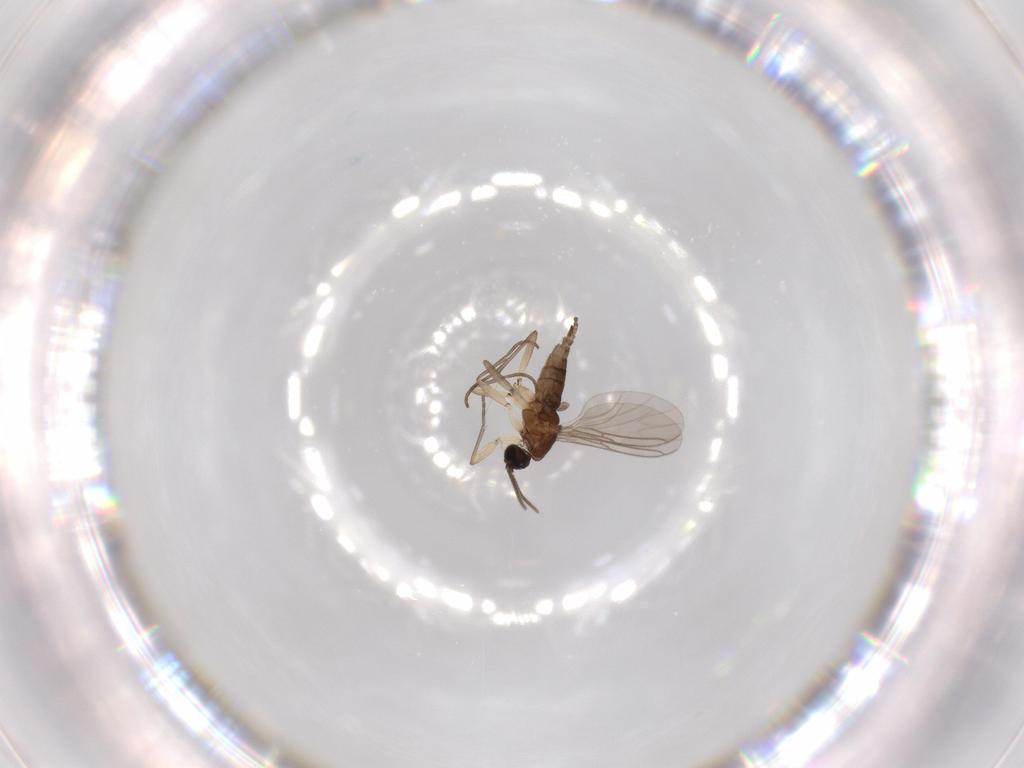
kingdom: Animalia
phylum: Arthropoda
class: Insecta
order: Diptera
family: Sciaridae
